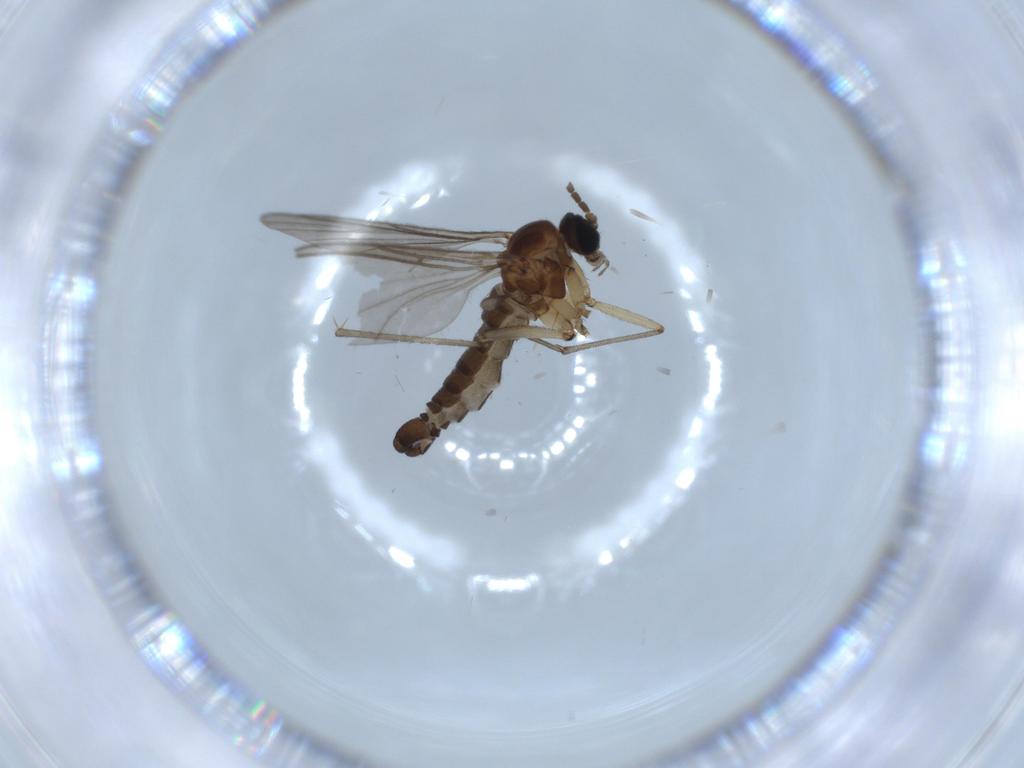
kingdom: Animalia
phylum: Arthropoda
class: Insecta
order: Diptera
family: Sciaridae
